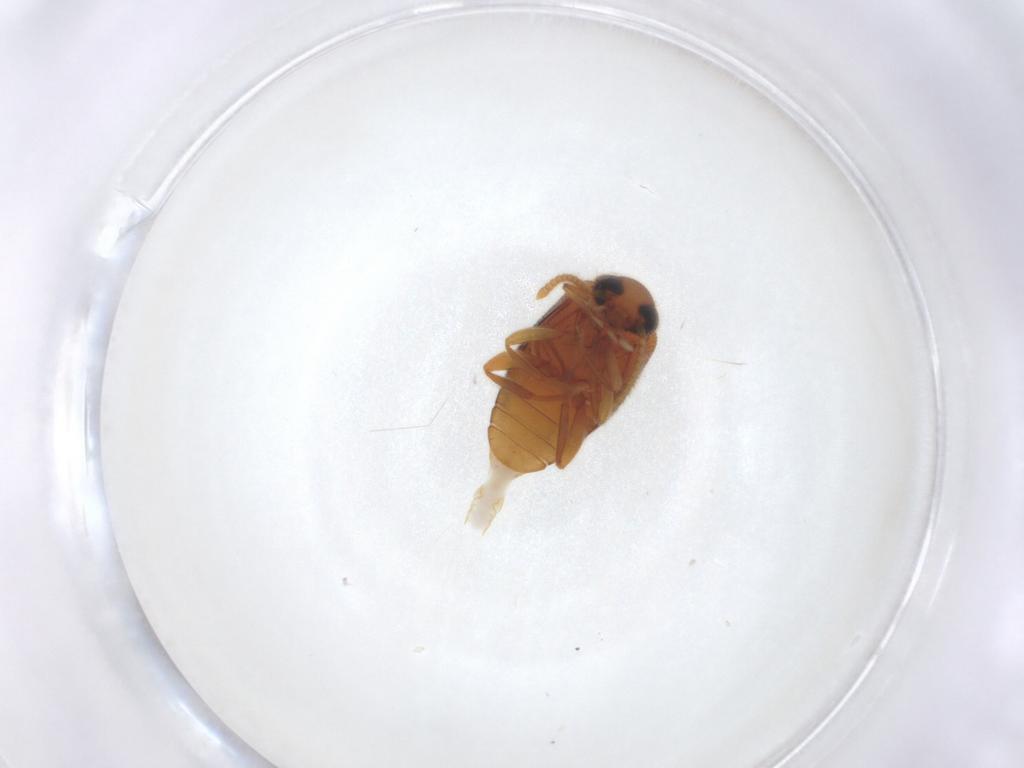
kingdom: Animalia
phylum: Arthropoda
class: Insecta
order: Coleoptera
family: Aderidae
